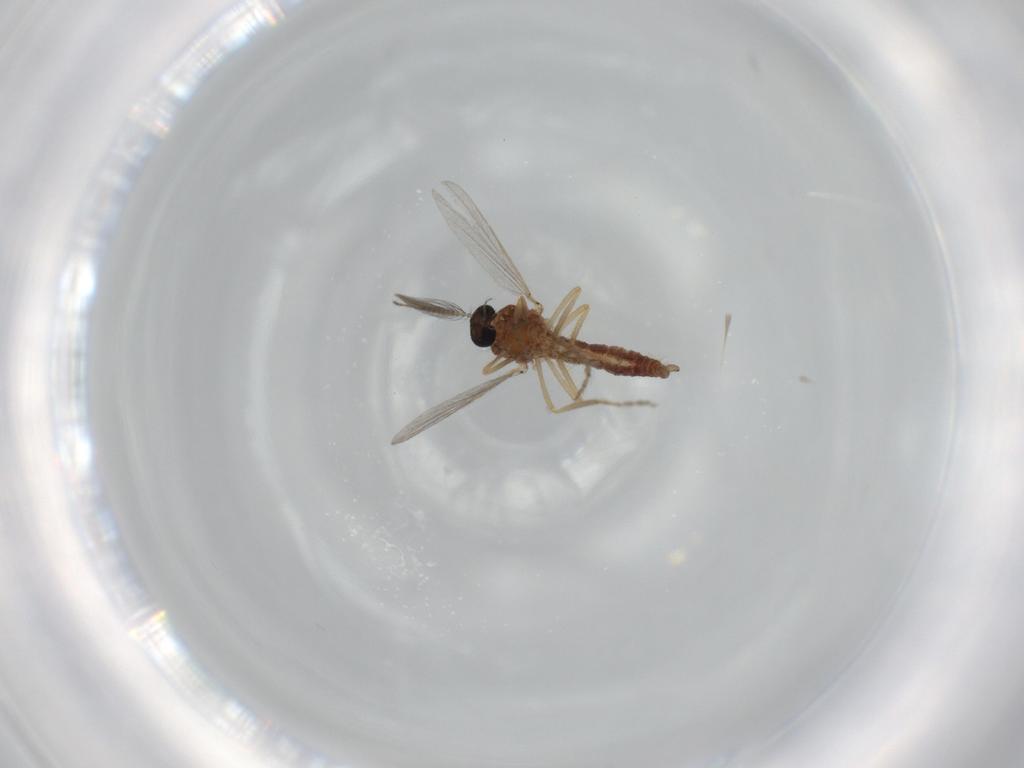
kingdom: Animalia
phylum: Arthropoda
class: Insecta
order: Diptera
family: Ceratopogonidae
